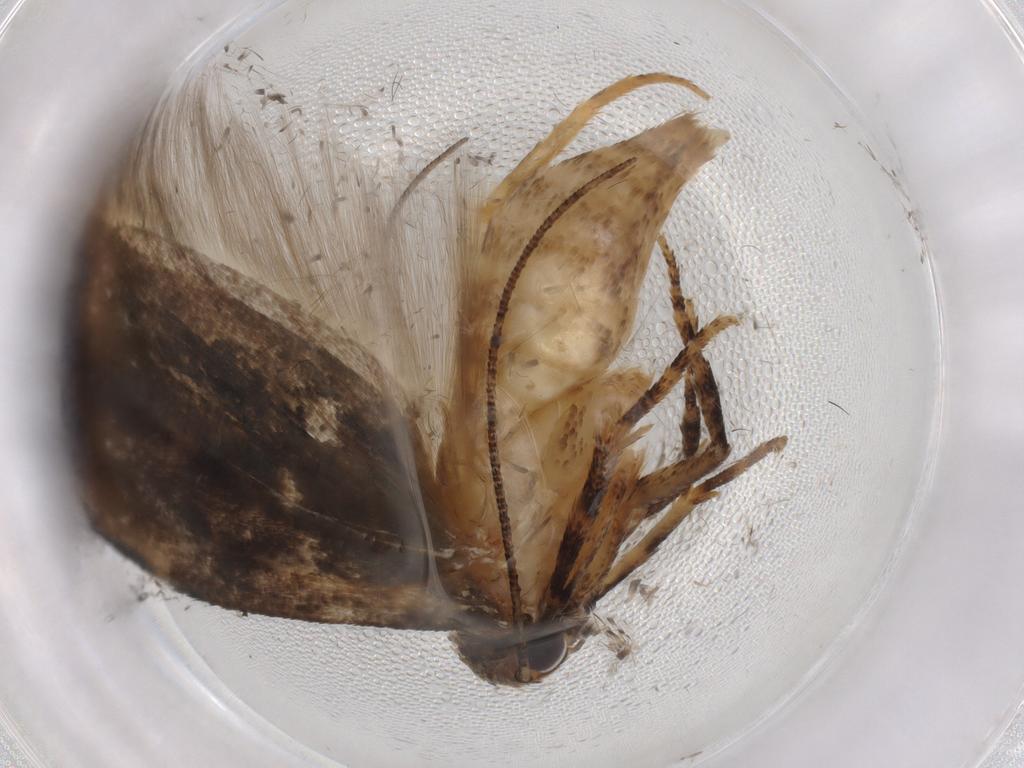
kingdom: Animalia
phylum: Arthropoda
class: Insecta
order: Lepidoptera
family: Gelechiidae
